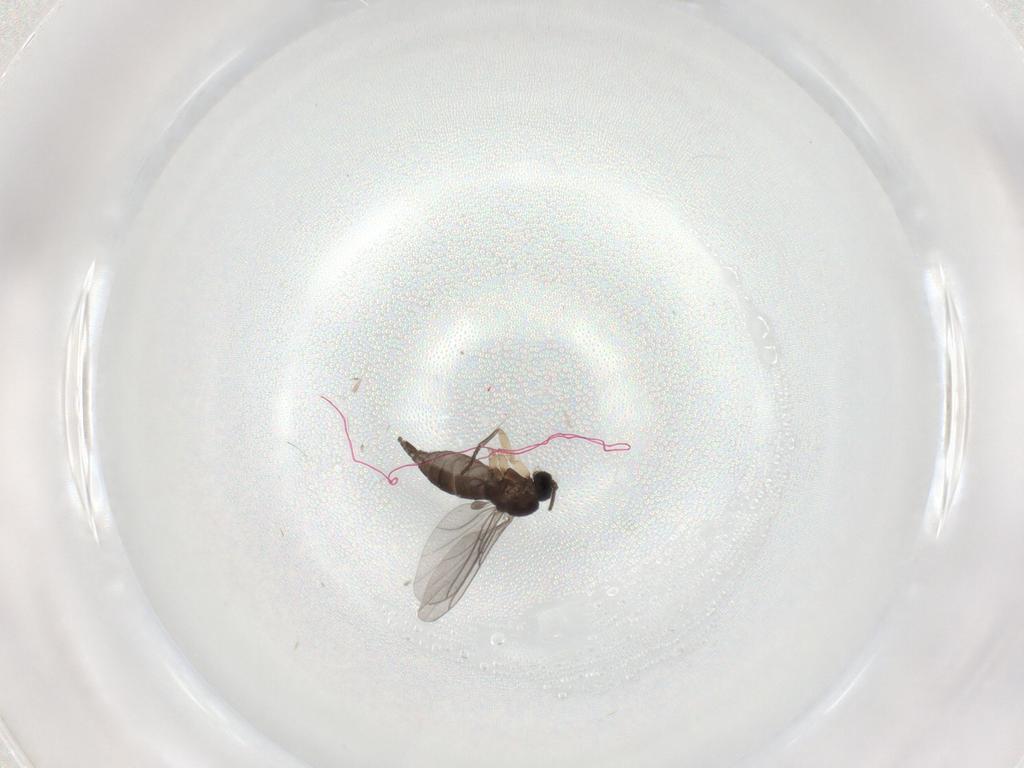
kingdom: Animalia
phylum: Arthropoda
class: Insecta
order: Diptera
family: Sciaridae
